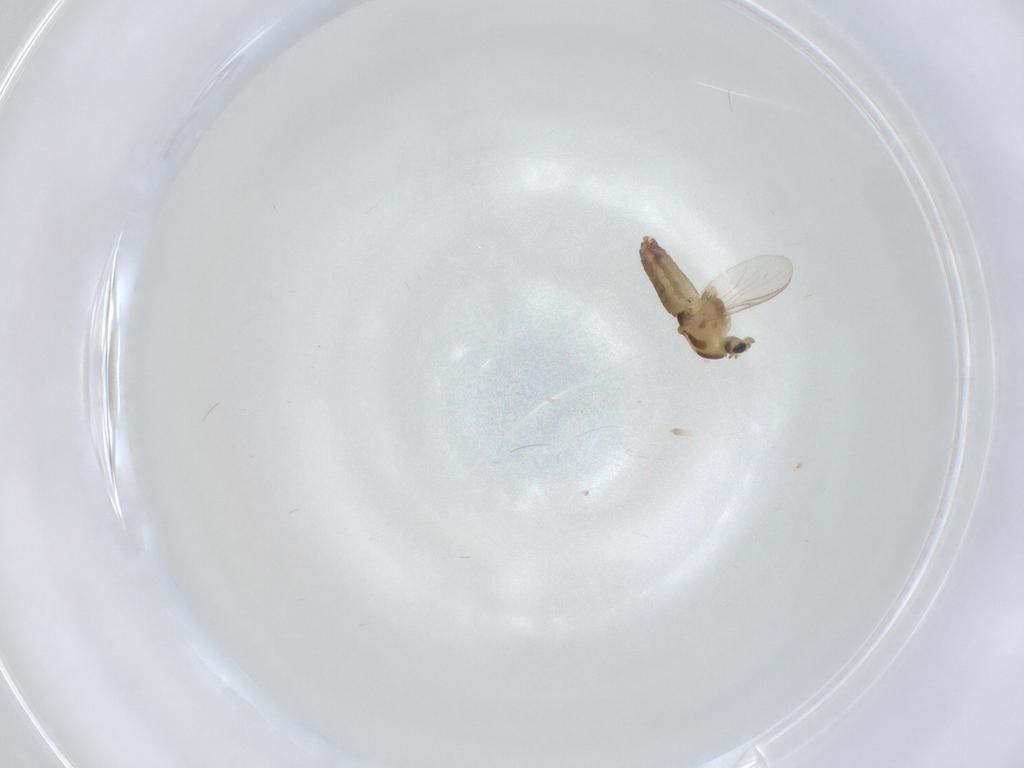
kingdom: Animalia
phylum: Arthropoda
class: Insecta
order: Diptera
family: Chironomidae
